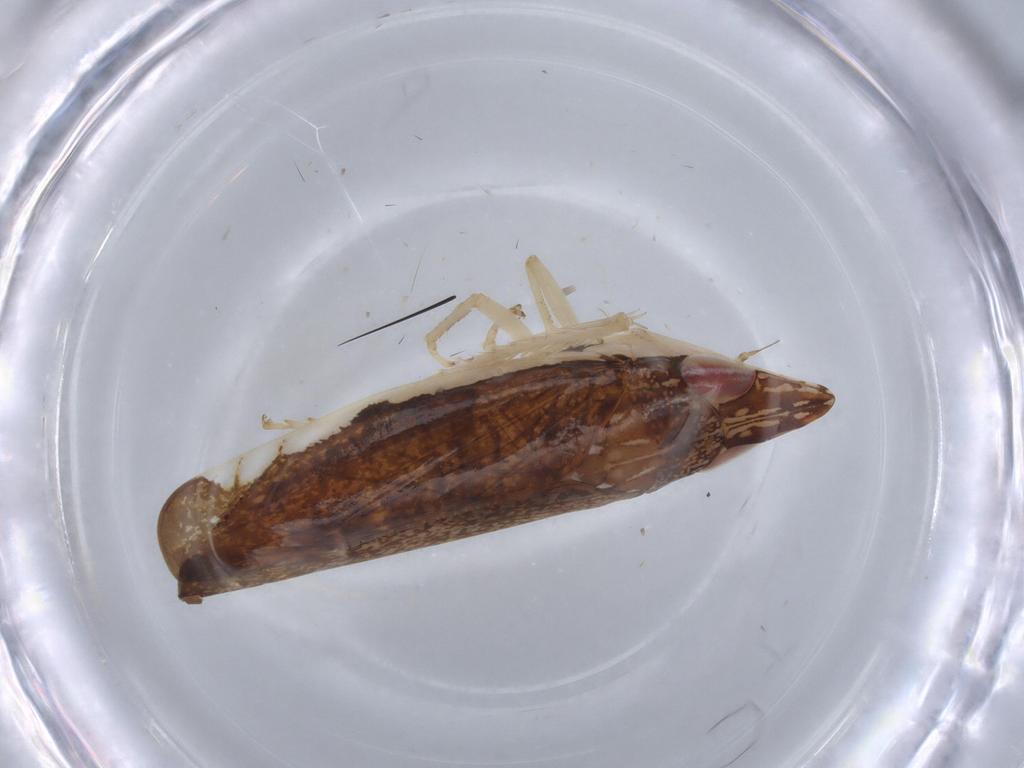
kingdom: Animalia
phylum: Arthropoda
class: Insecta
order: Hemiptera
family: Cicadellidae
